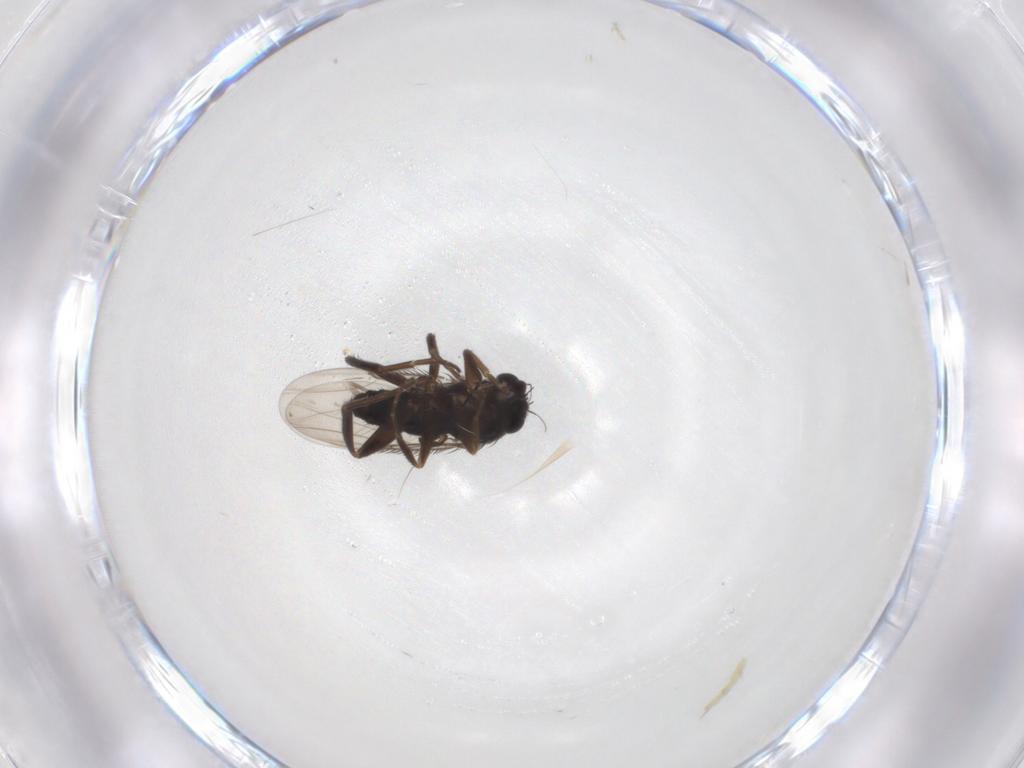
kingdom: Animalia
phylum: Arthropoda
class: Insecta
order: Diptera
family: Phoridae
